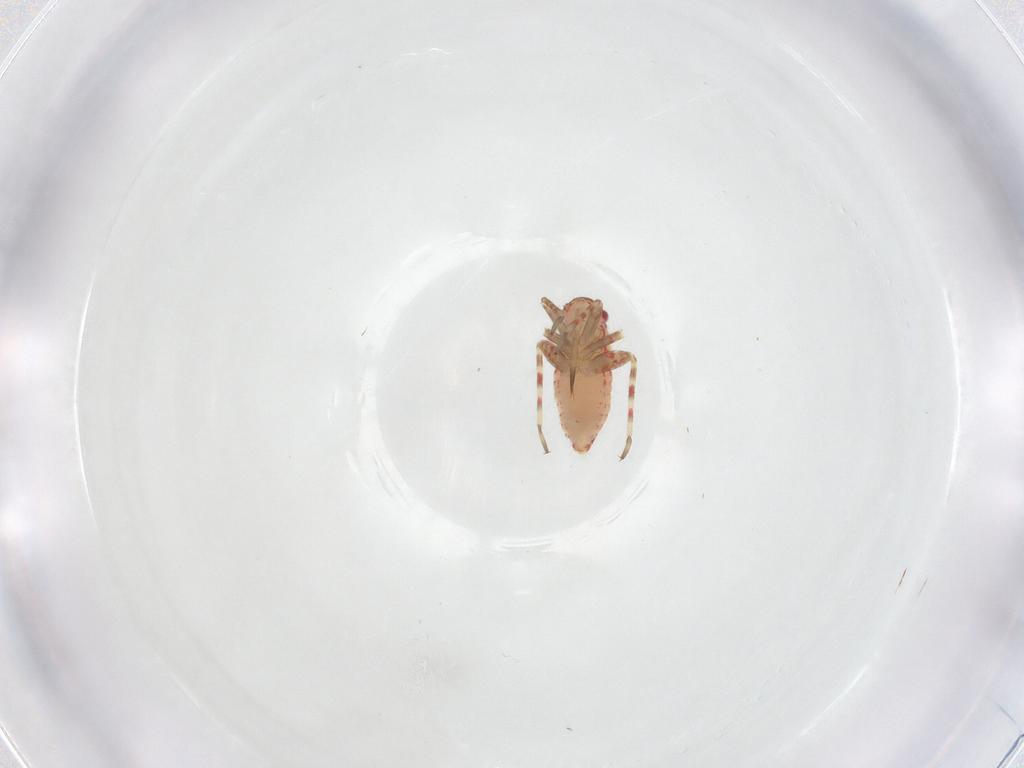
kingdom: Animalia
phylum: Arthropoda
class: Insecta
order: Hemiptera
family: Miridae
